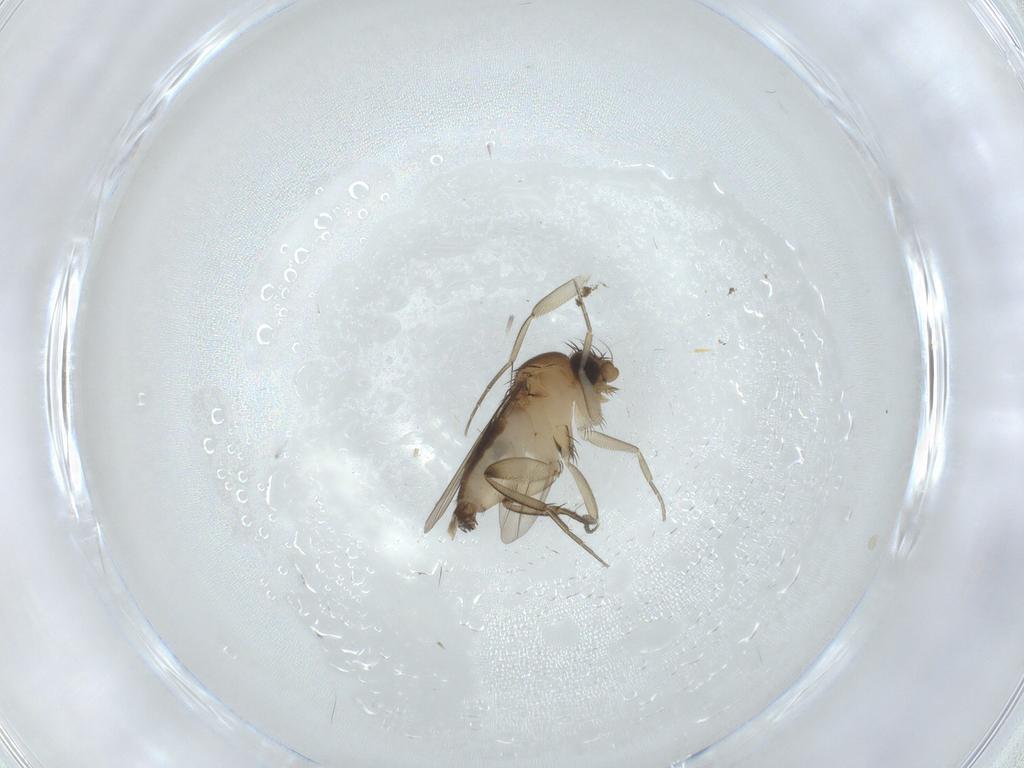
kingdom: Animalia
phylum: Arthropoda
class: Insecta
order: Diptera
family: Phoridae
